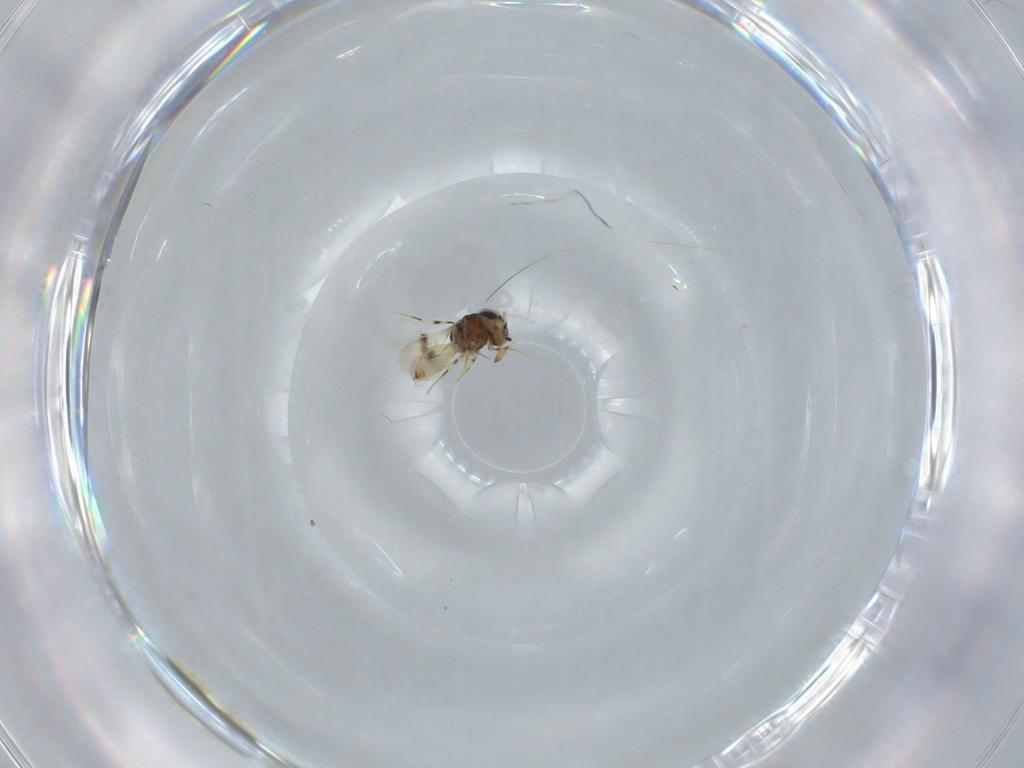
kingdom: Animalia
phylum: Arthropoda
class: Insecta
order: Hymenoptera
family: Scelionidae
